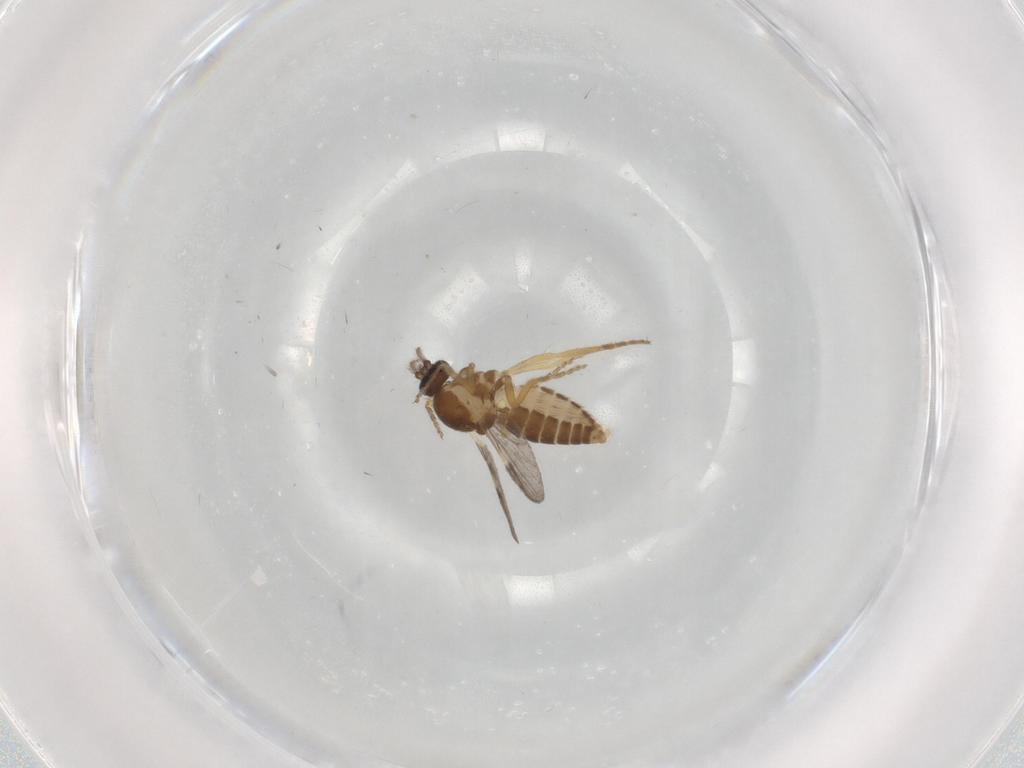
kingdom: Animalia
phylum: Arthropoda
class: Insecta
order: Diptera
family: Ceratopogonidae
